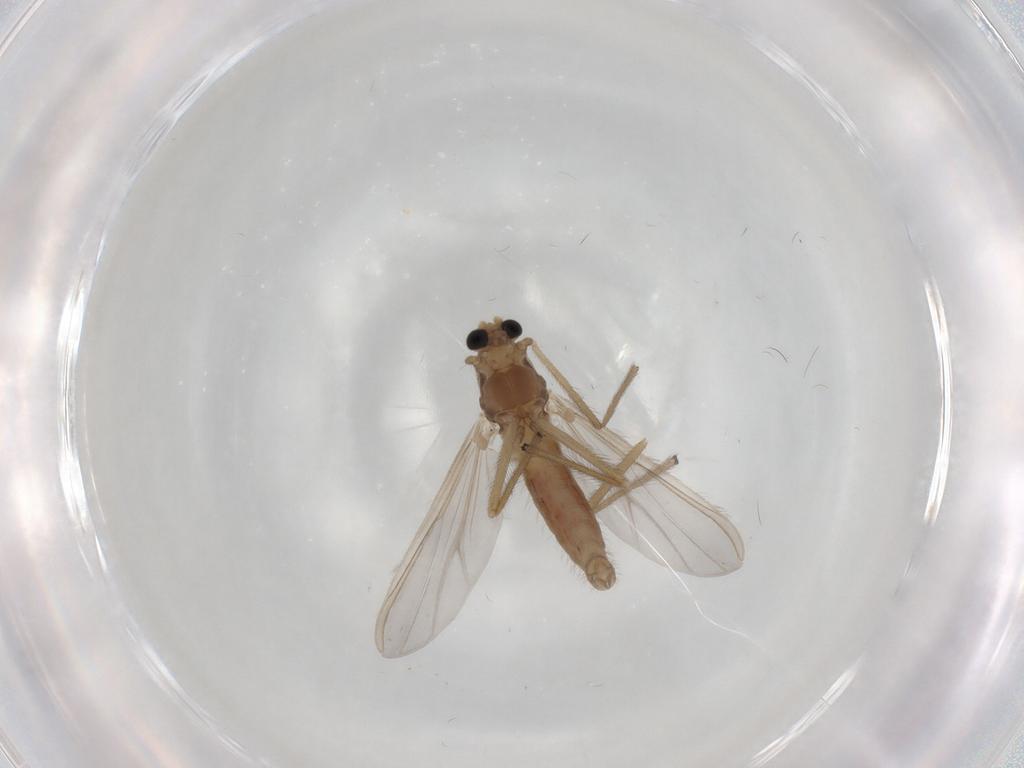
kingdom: Animalia
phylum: Arthropoda
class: Insecta
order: Diptera
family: Chironomidae
